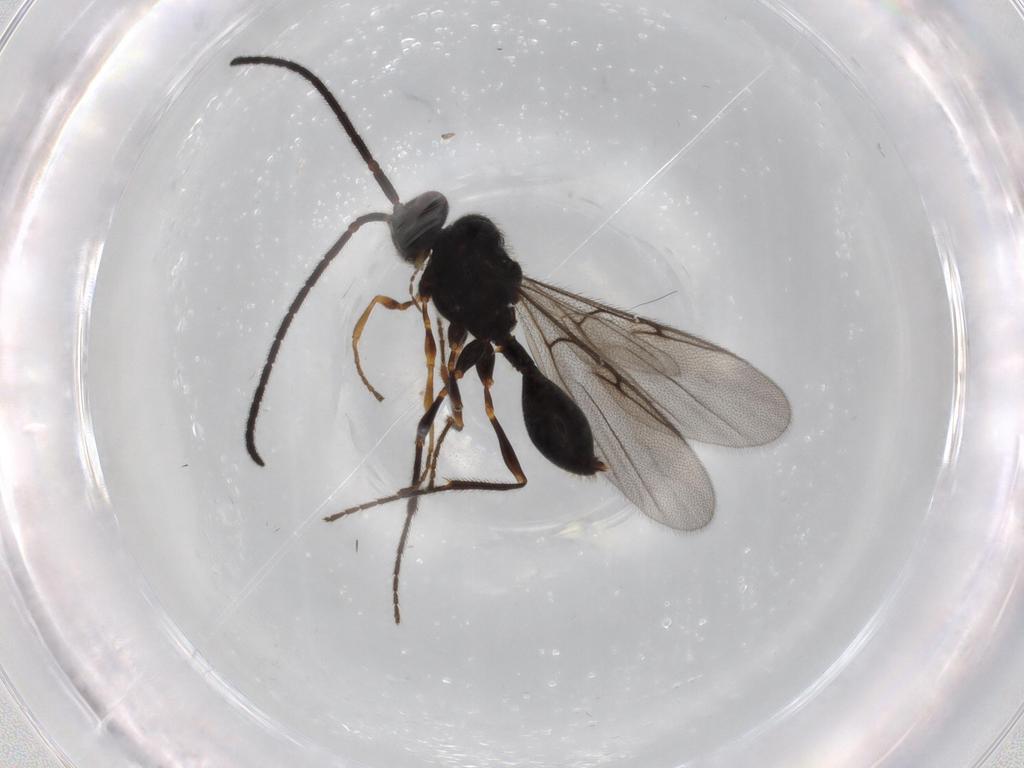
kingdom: Animalia
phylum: Arthropoda
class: Insecta
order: Hymenoptera
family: Diapriidae
